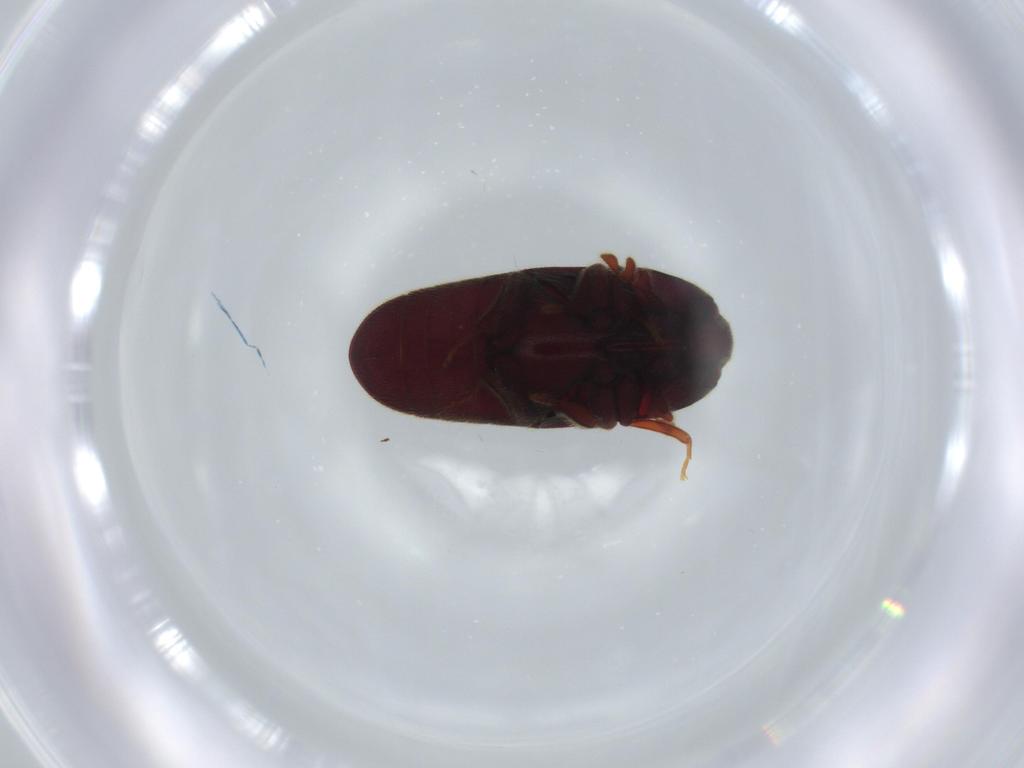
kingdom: Animalia
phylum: Arthropoda
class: Insecta
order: Coleoptera
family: Throscidae
